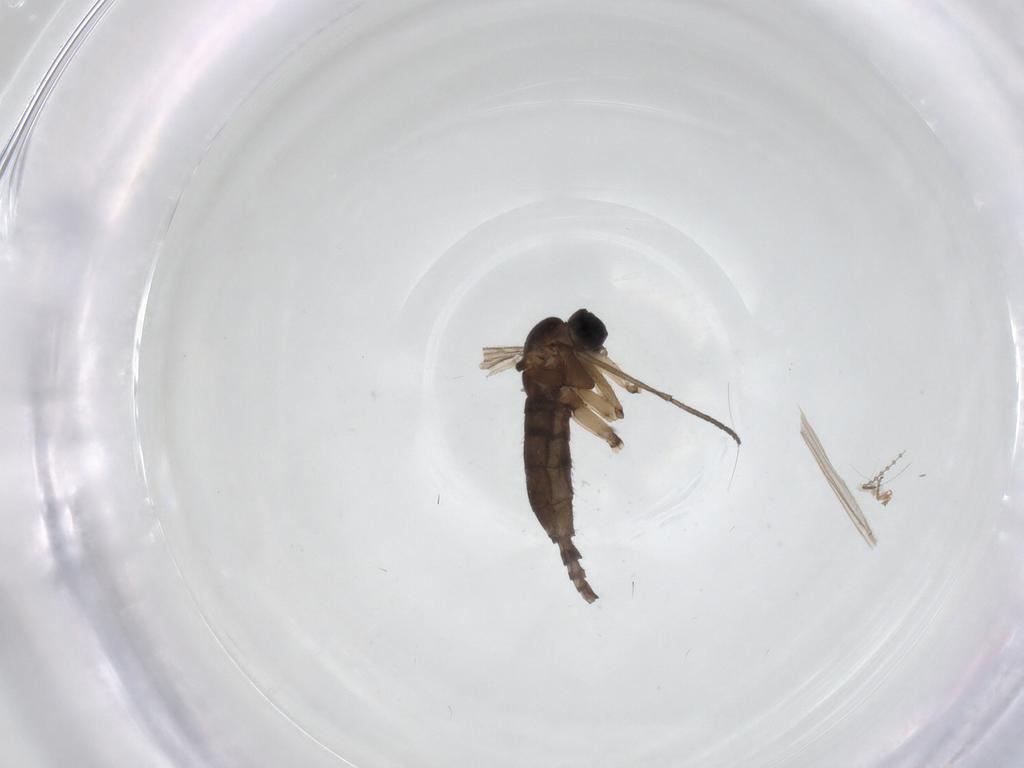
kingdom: Animalia
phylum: Arthropoda
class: Insecta
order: Diptera
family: Sciaridae
